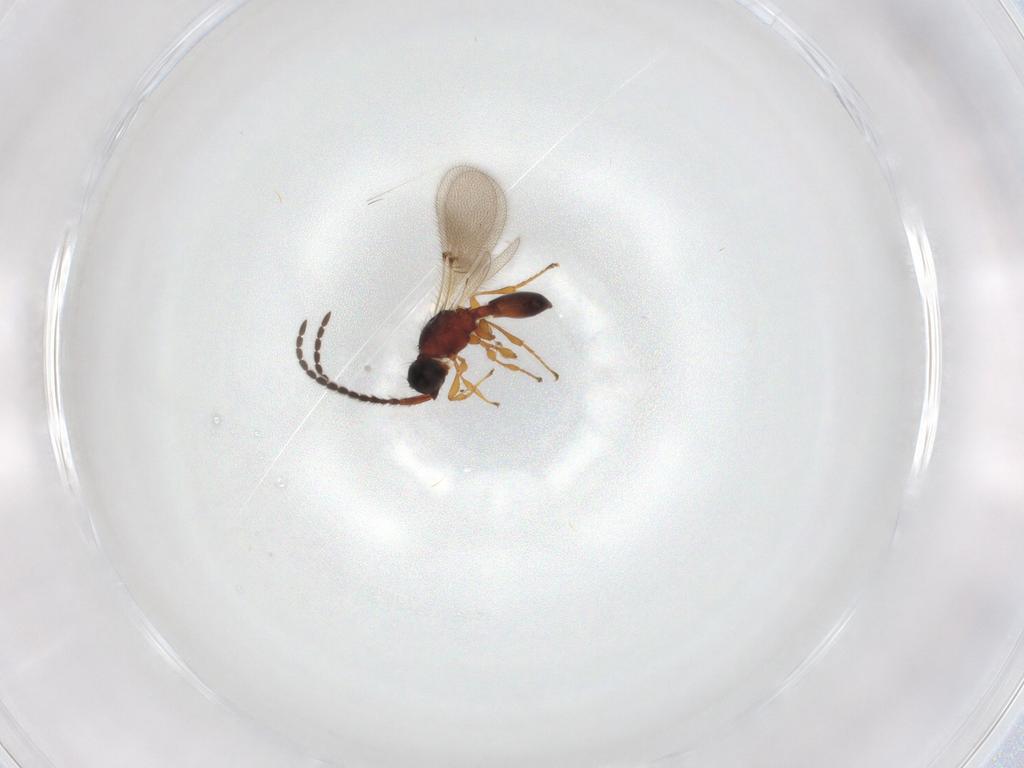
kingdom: Animalia
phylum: Arthropoda
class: Insecta
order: Hymenoptera
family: Diapriidae
